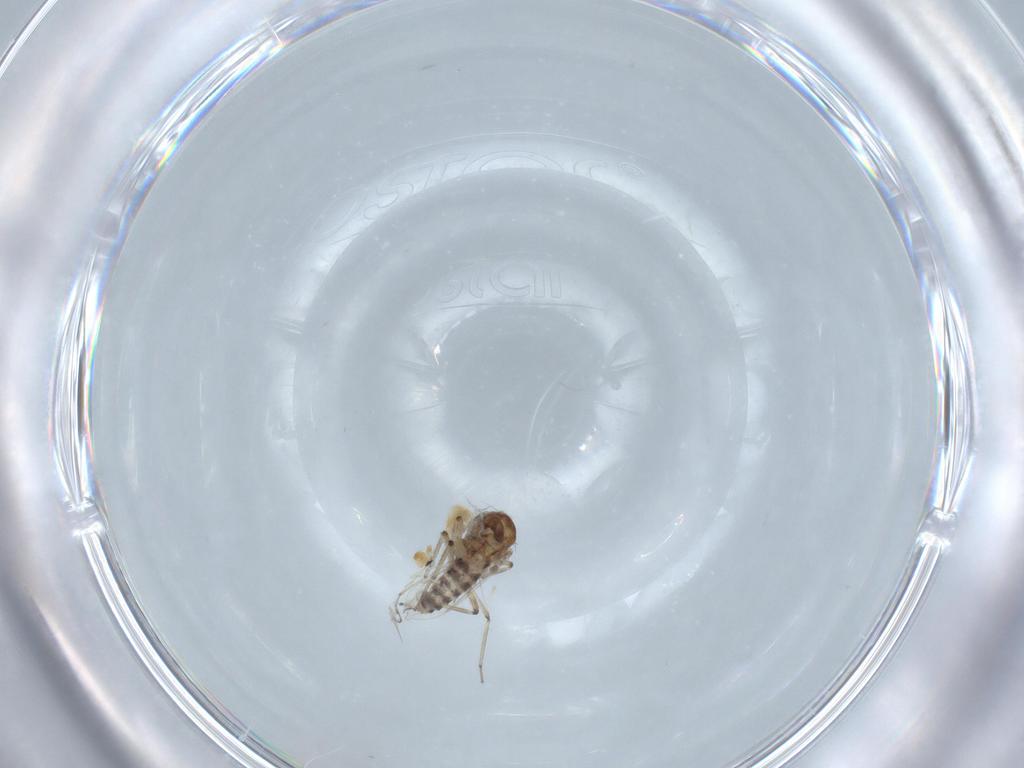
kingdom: Animalia
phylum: Arthropoda
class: Insecta
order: Diptera
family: Ceratopogonidae
